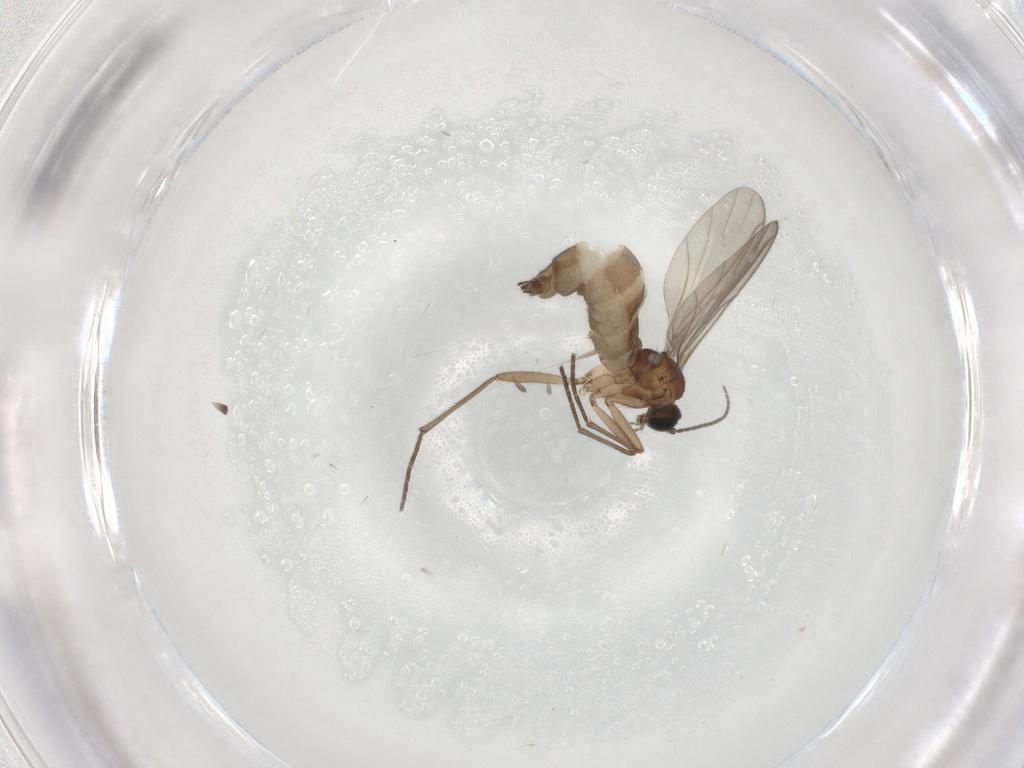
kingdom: Animalia
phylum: Arthropoda
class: Insecta
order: Diptera
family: Sciaridae
